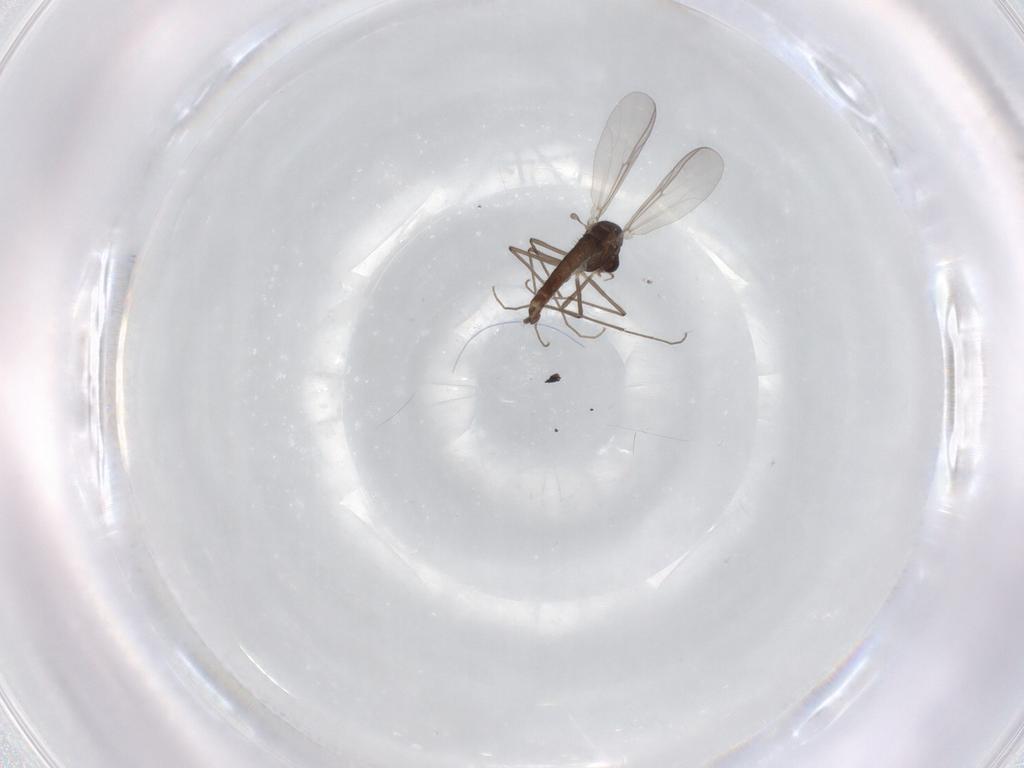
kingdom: Animalia
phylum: Arthropoda
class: Insecta
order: Diptera
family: Chironomidae
